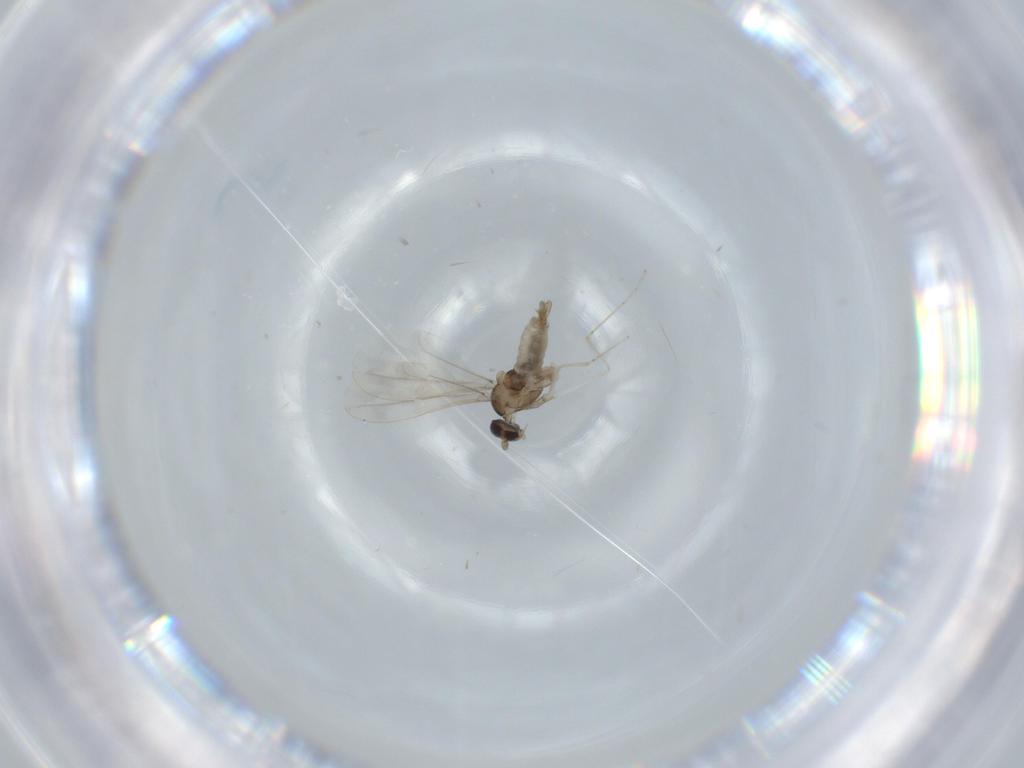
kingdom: Animalia
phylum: Arthropoda
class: Insecta
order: Diptera
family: Cecidomyiidae
